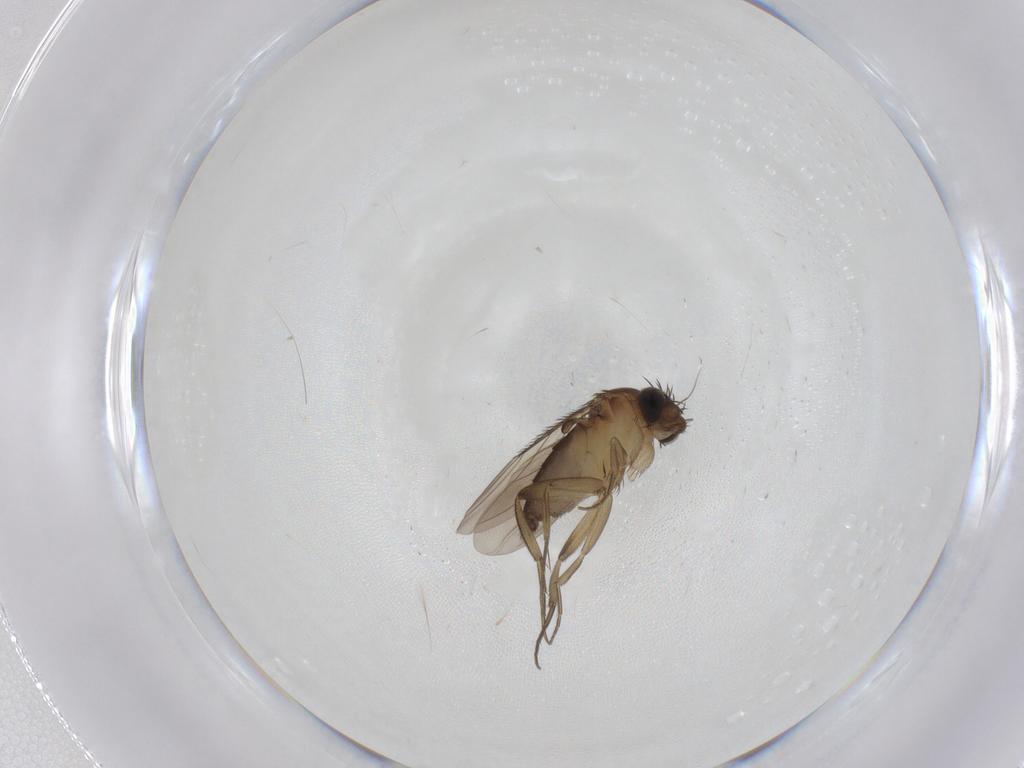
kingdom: Animalia
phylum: Arthropoda
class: Insecta
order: Diptera
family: Phoridae
